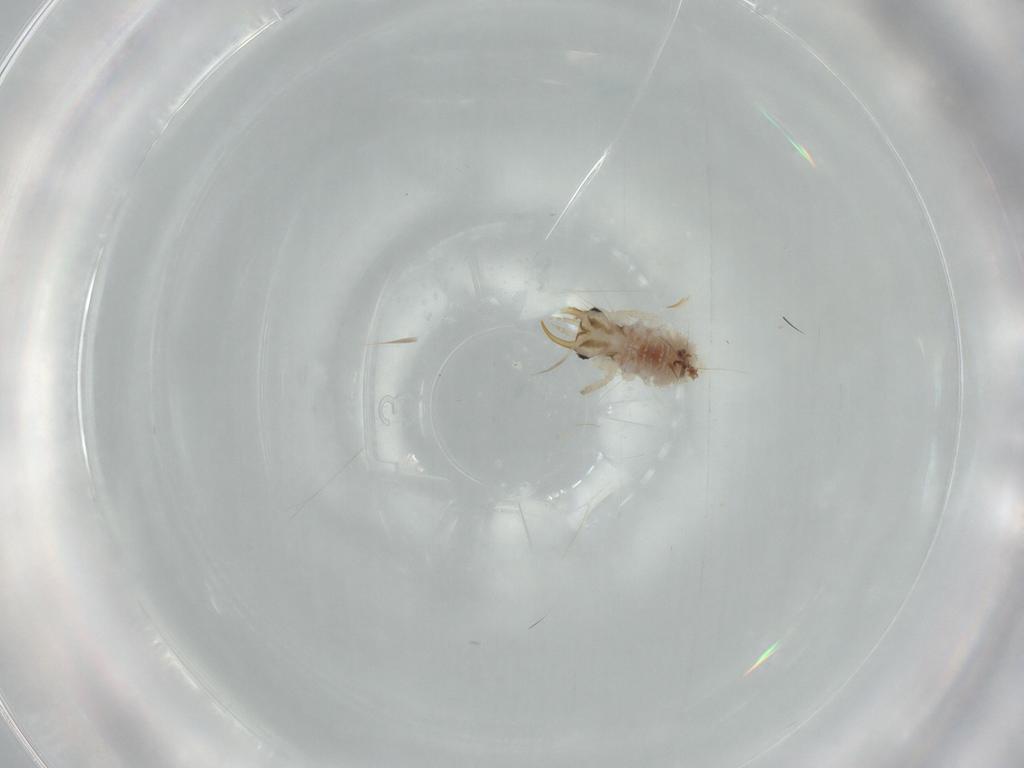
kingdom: Animalia
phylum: Arthropoda
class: Insecta
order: Neuroptera
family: Chrysopidae
